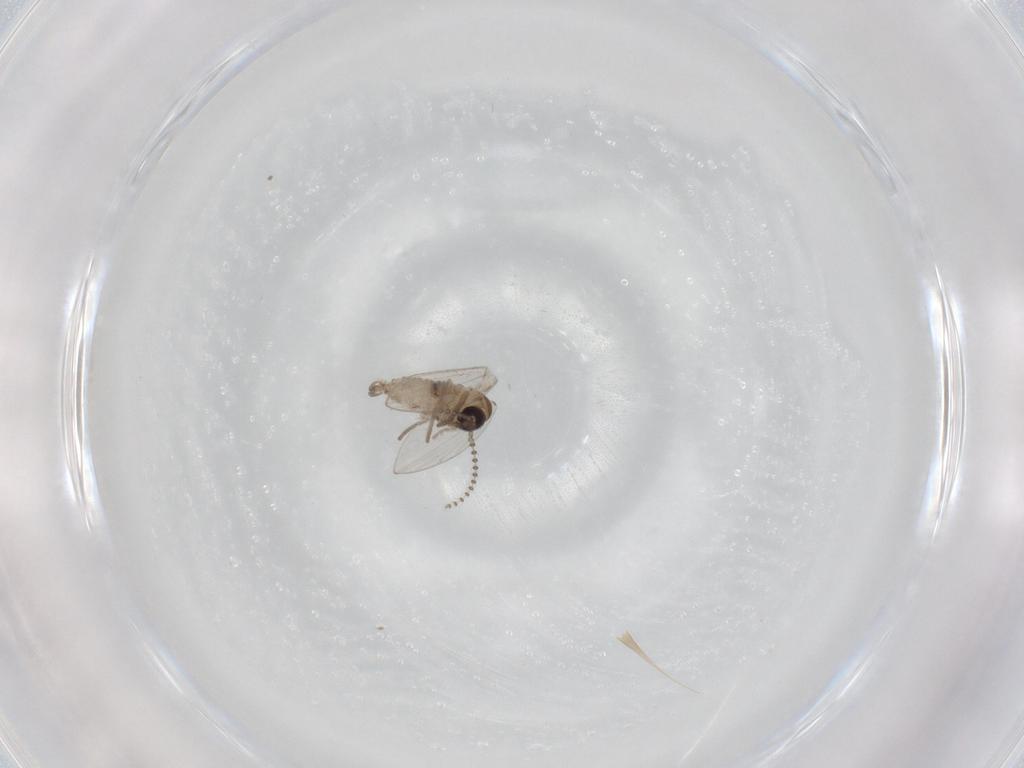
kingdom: Animalia
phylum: Arthropoda
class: Insecta
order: Diptera
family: Psychodidae
